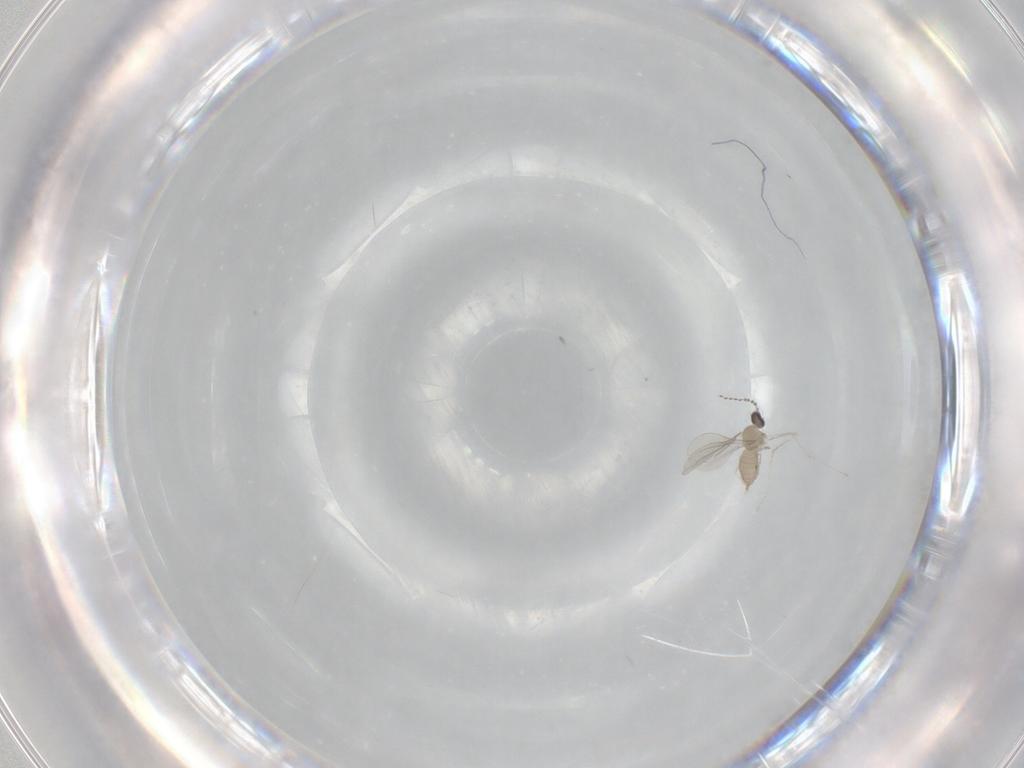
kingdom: Animalia
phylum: Arthropoda
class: Insecta
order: Diptera
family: Cecidomyiidae
